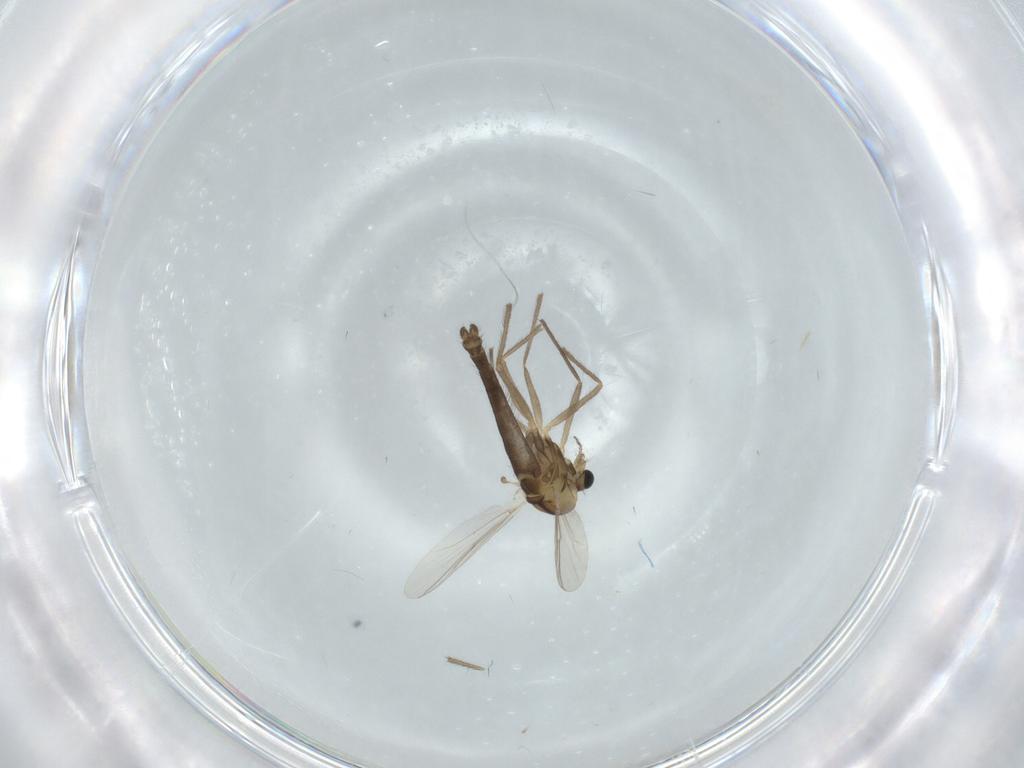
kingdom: Animalia
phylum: Arthropoda
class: Insecta
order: Diptera
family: Chironomidae
